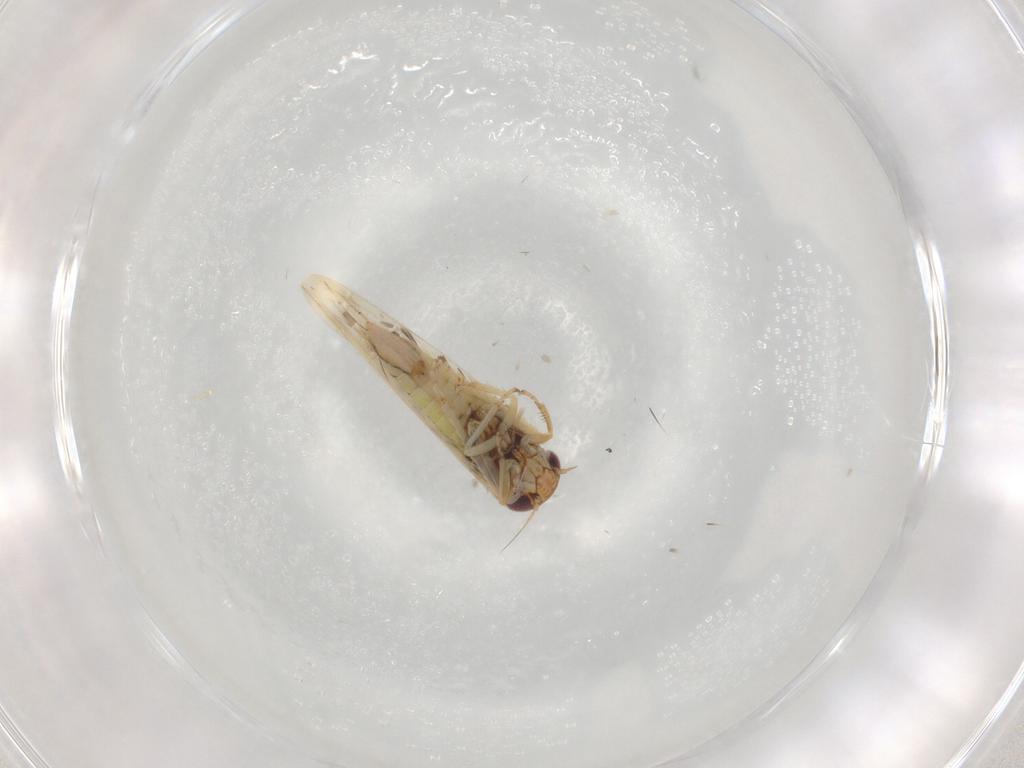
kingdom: Animalia
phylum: Arthropoda
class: Insecta
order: Hemiptera
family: Cicadellidae
